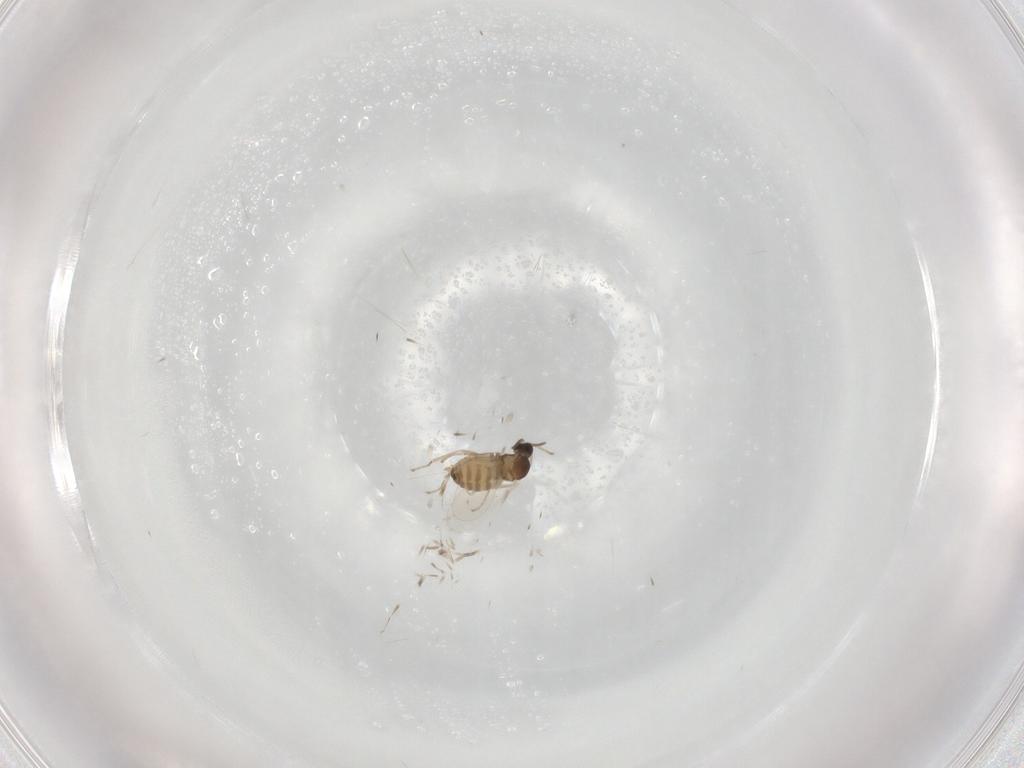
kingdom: Animalia
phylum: Arthropoda
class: Insecta
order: Diptera
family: Cecidomyiidae
